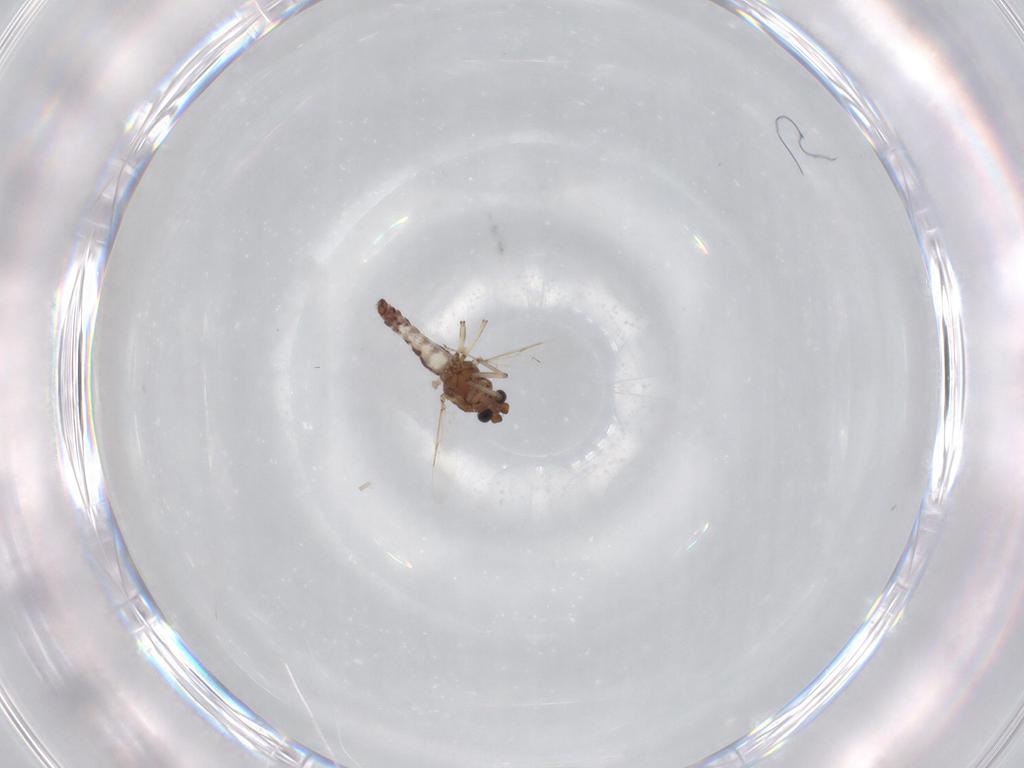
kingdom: Animalia
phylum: Arthropoda
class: Insecta
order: Diptera
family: Ceratopogonidae
